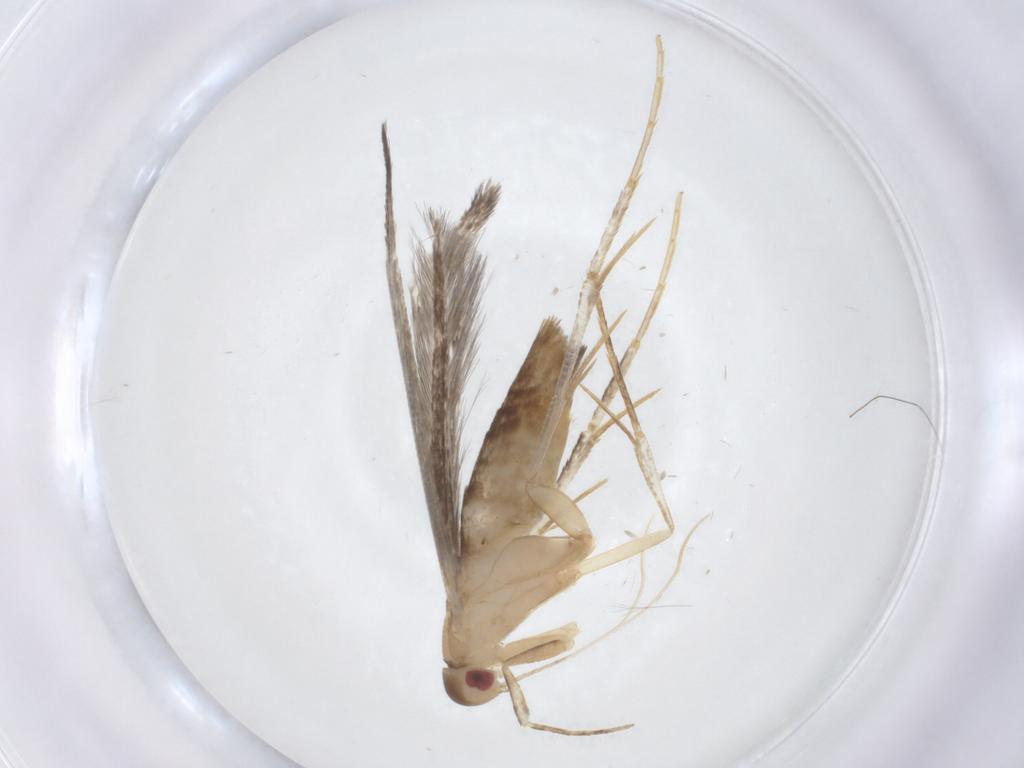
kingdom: Animalia
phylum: Arthropoda
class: Insecta
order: Lepidoptera
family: Cosmopterigidae
